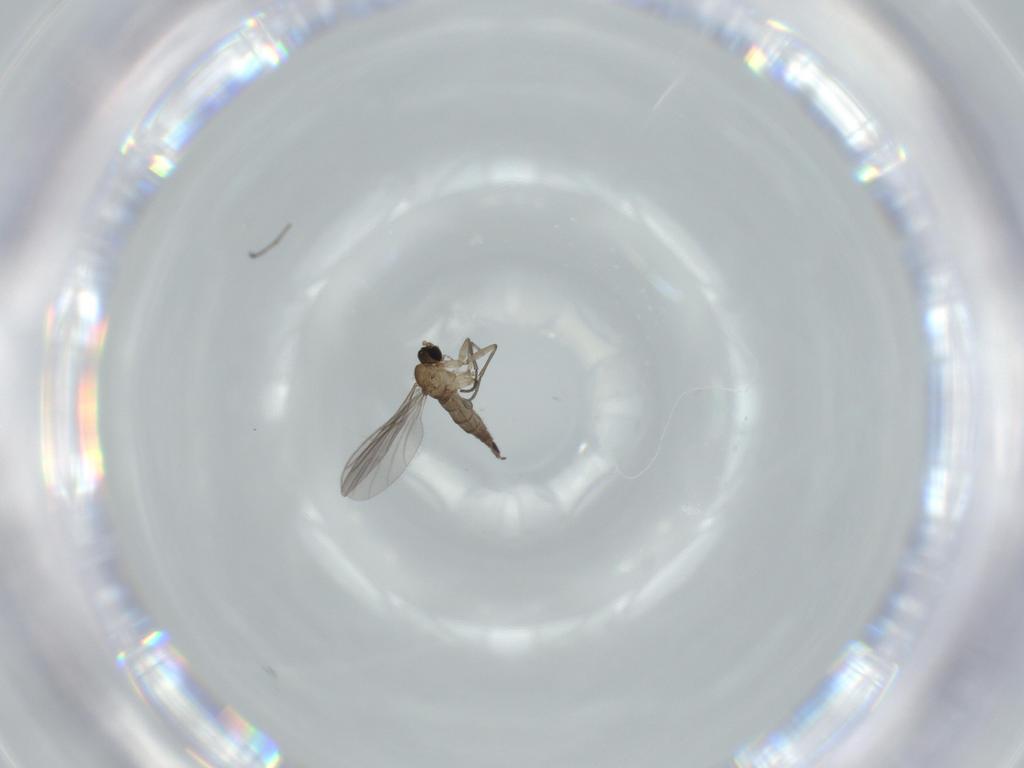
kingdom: Animalia
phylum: Arthropoda
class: Insecta
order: Diptera
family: Sciaridae
